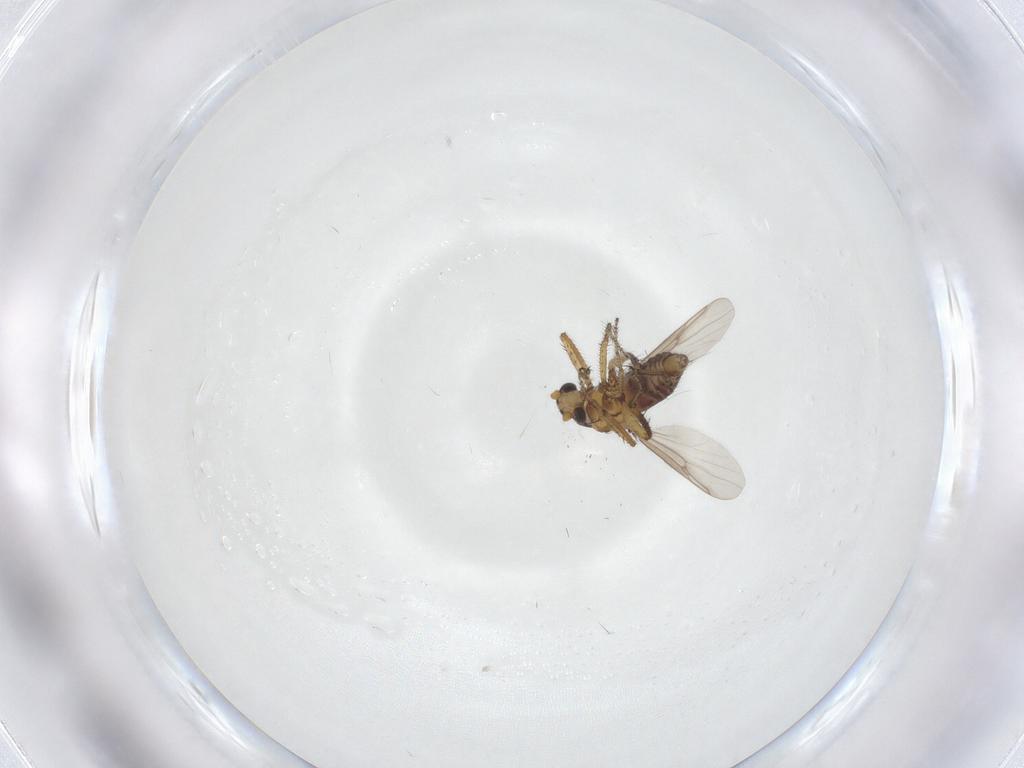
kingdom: Animalia
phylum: Arthropoda
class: Insecta
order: Diptera
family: Ceratopogonidae
